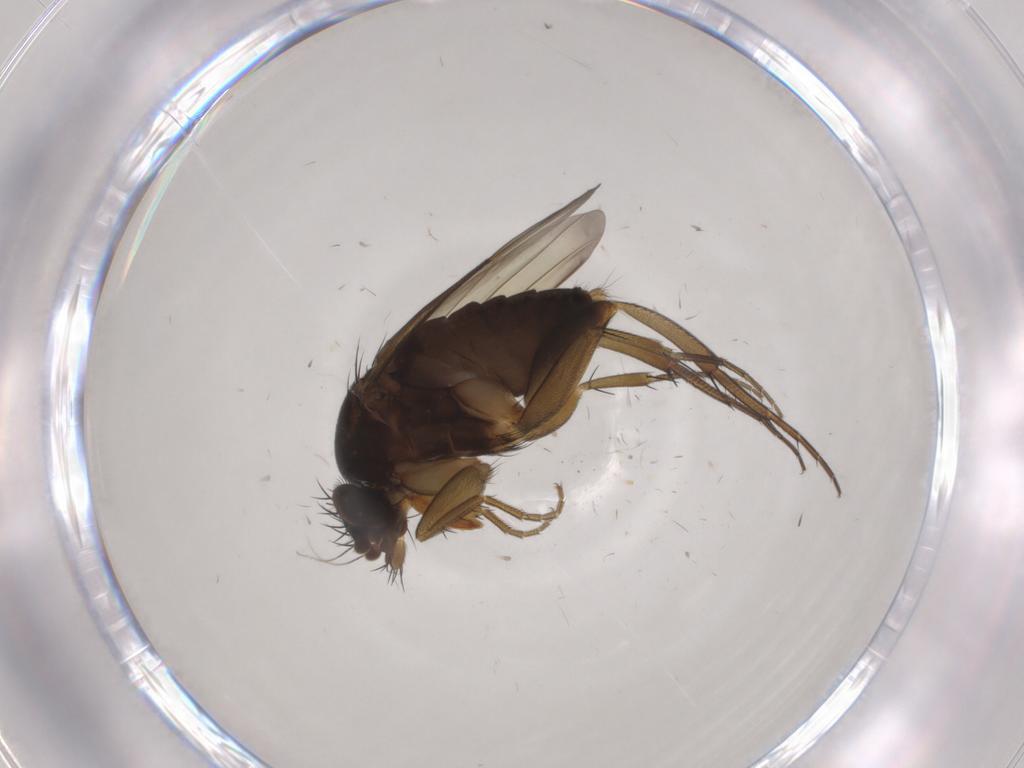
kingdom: Animalia
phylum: Arthropoda
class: Insecta
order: Diptera
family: Phoridae
